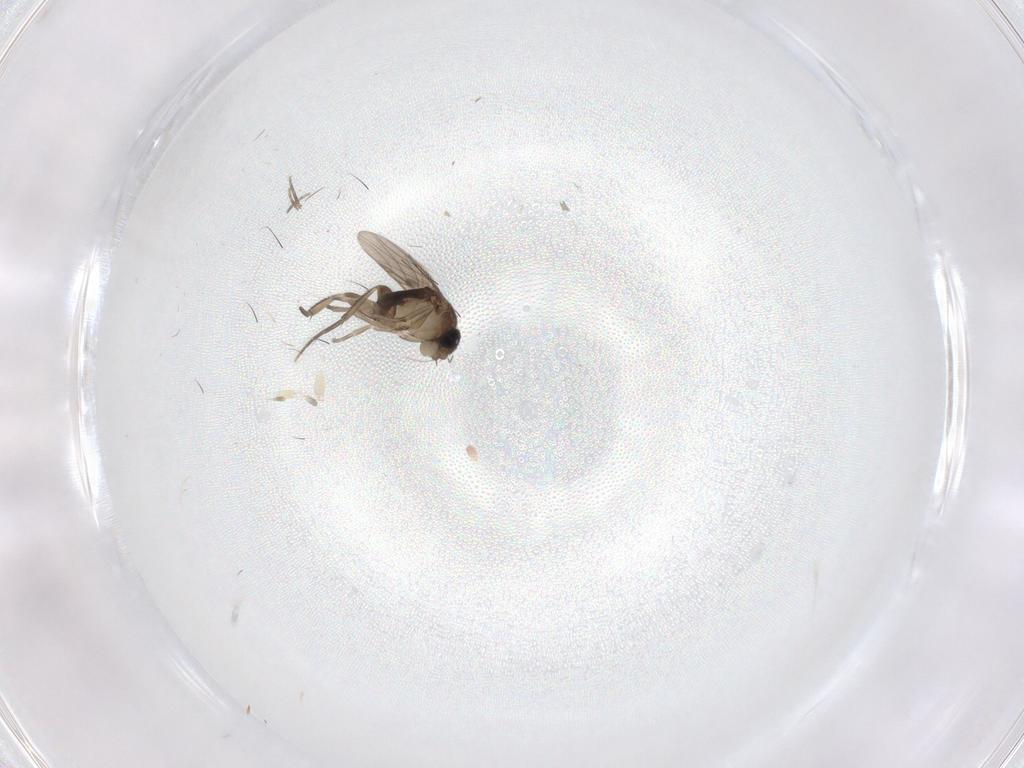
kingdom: Animalia
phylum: Arthropoda
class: Insecta
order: Diptera
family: Phoridae
